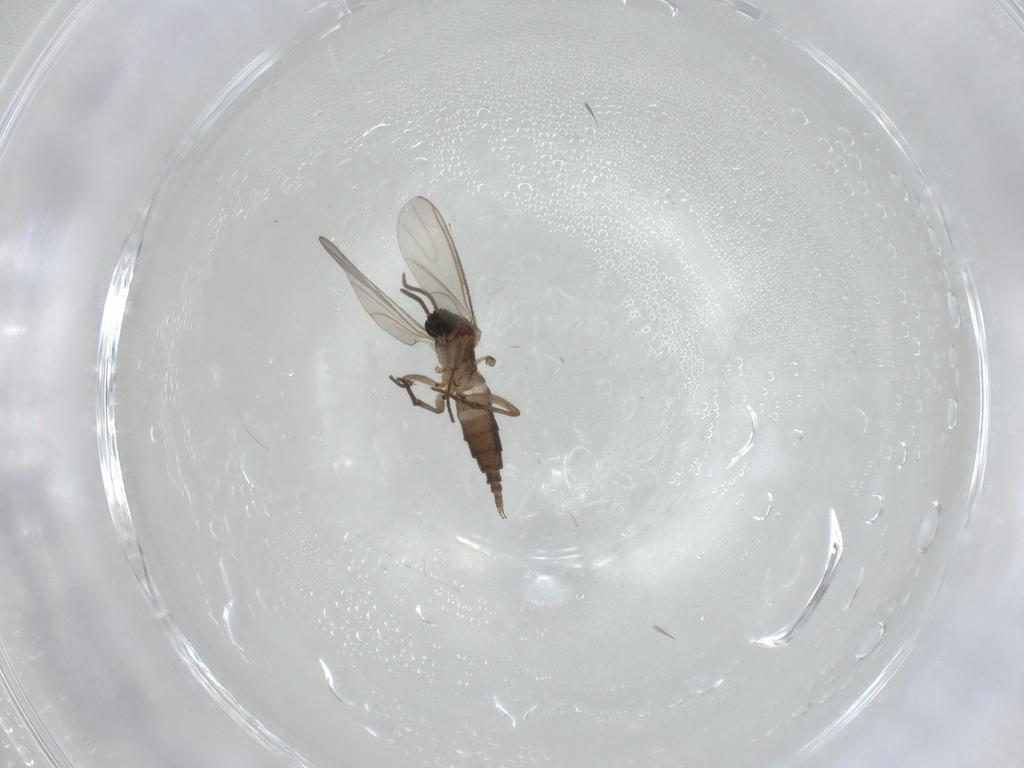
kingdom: Animalia
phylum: Arthropoda
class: Insecta
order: Diptera
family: Sciaridae
